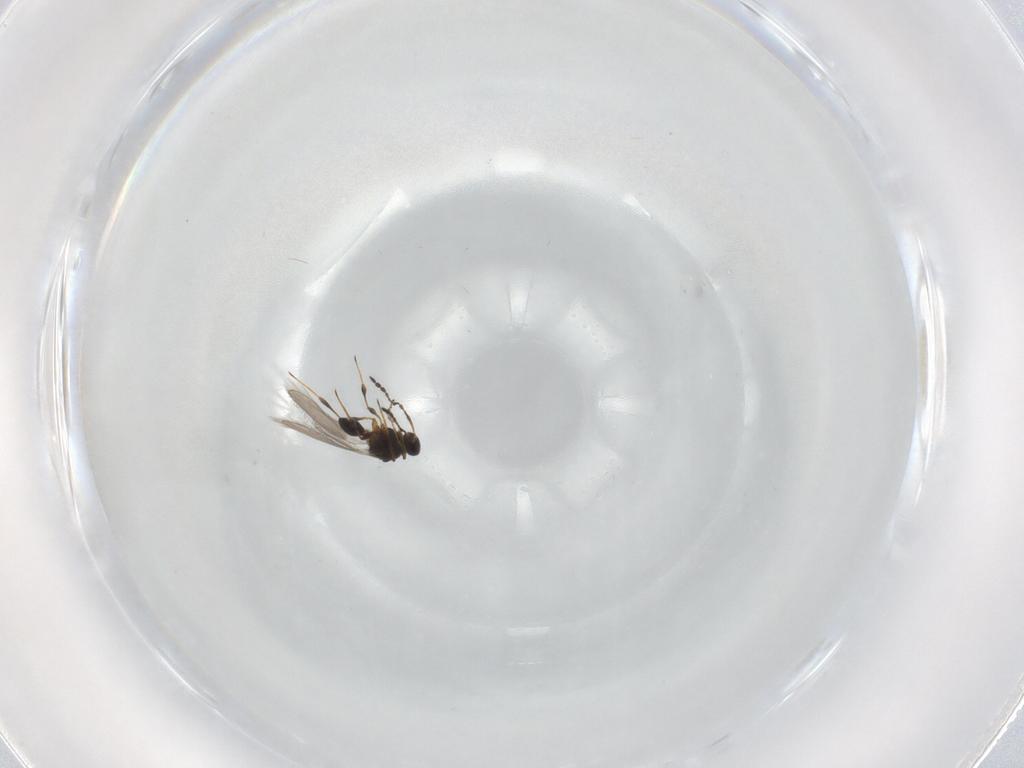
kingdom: Animalia
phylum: Arthropoda
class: Insecta
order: Hymenoptera
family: Platygastridae
